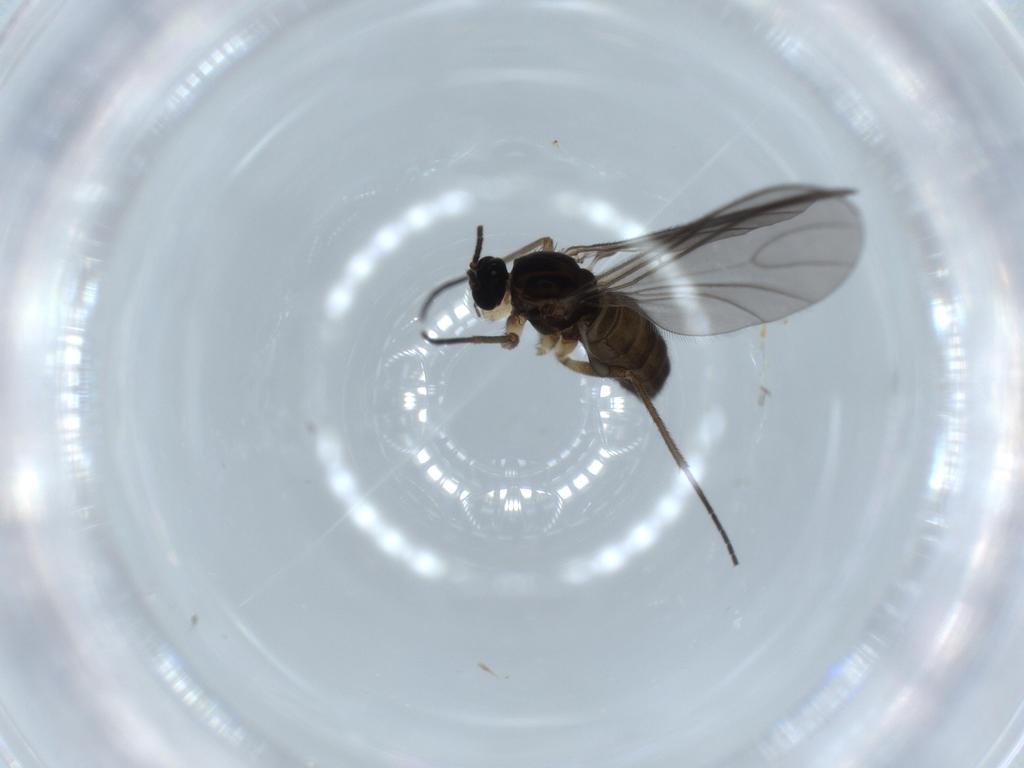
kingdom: Animalia
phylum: Arthropoda
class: Insecta
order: Diptera
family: Sciaridae
